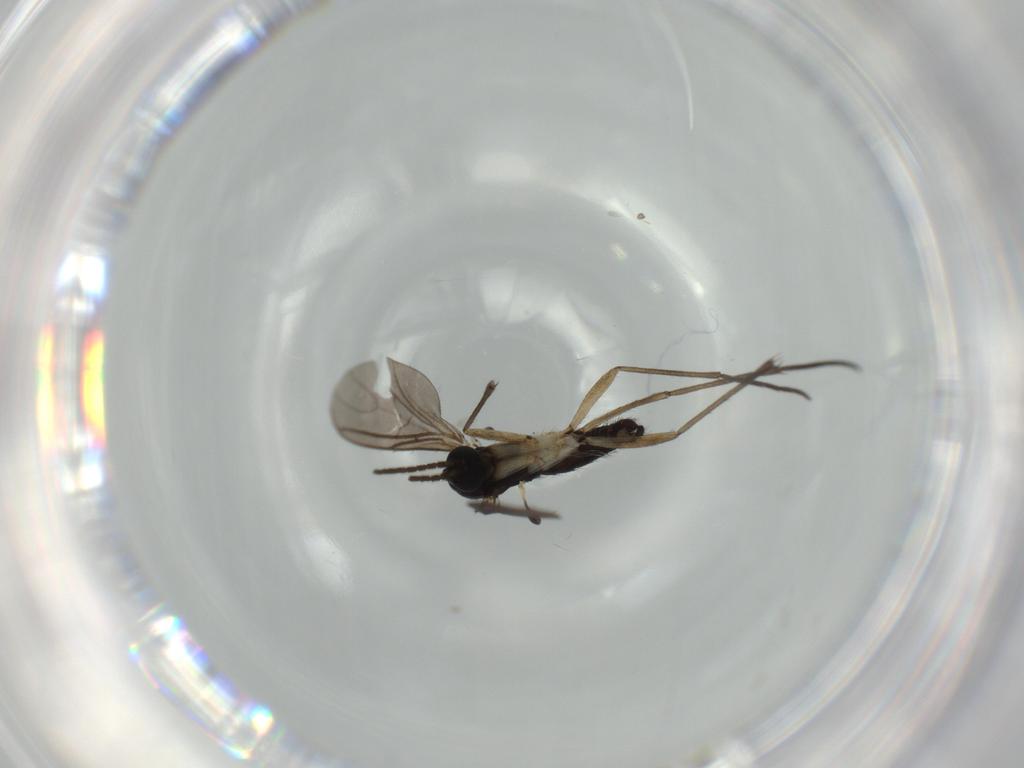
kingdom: Animalia
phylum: Arthropoda
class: Insecta
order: Diptera
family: Sciaridae
